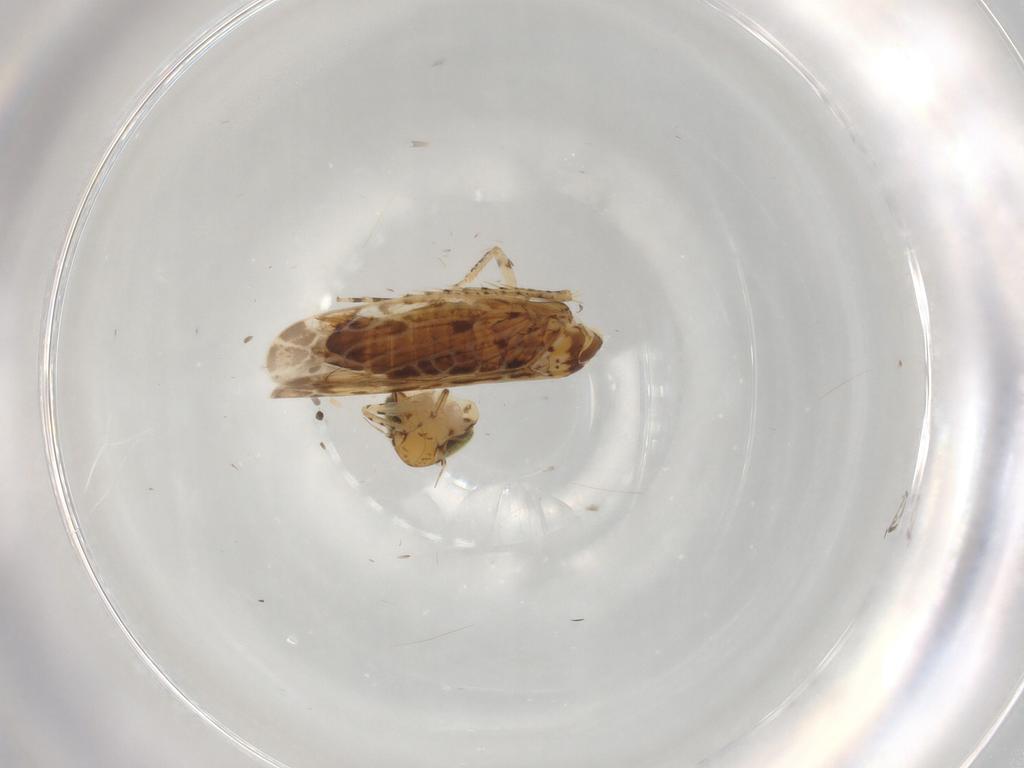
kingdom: Animalia
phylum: Arthropoda
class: Insecta
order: Hemiptera
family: Cicadellidae
